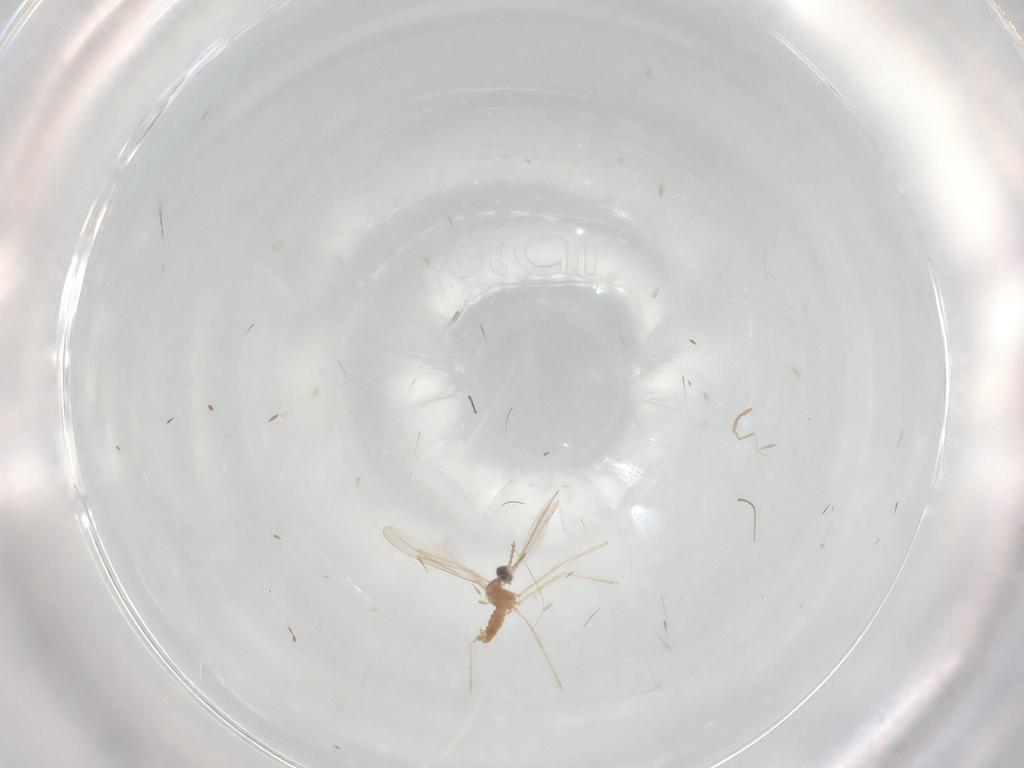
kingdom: Animalia
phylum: Arthropoda
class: Insecta
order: Diptera
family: Cecidomyiidae
